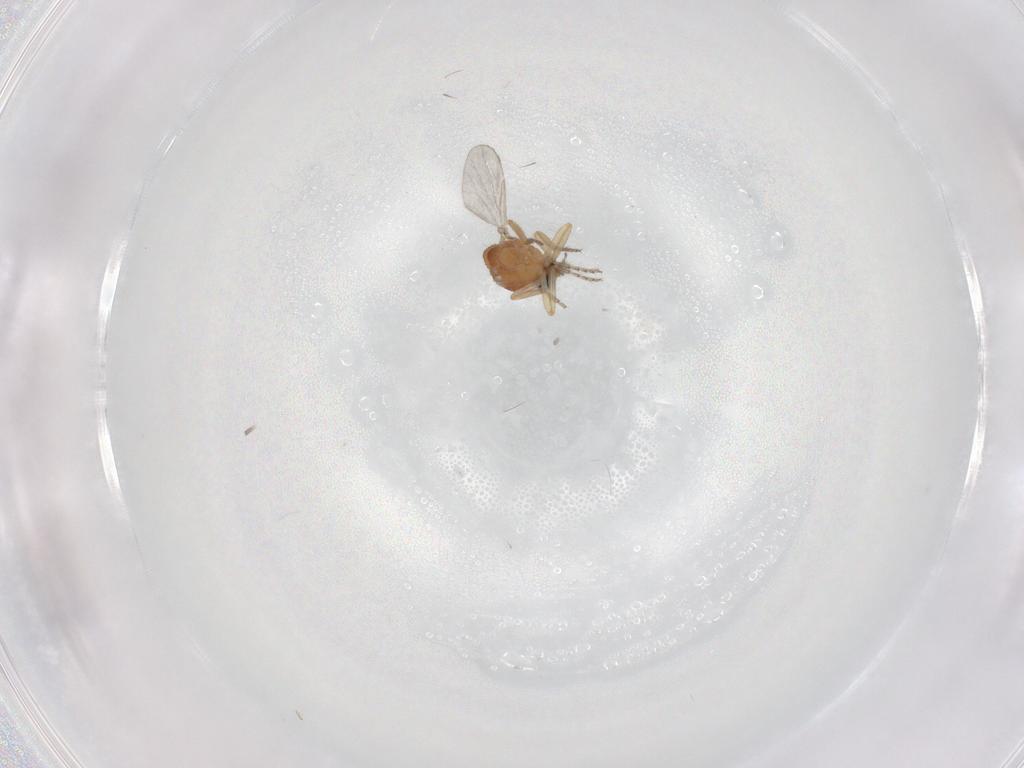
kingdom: Animalia
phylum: Arthropoda
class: Insecta
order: Diptera
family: Ceratopogonidae
